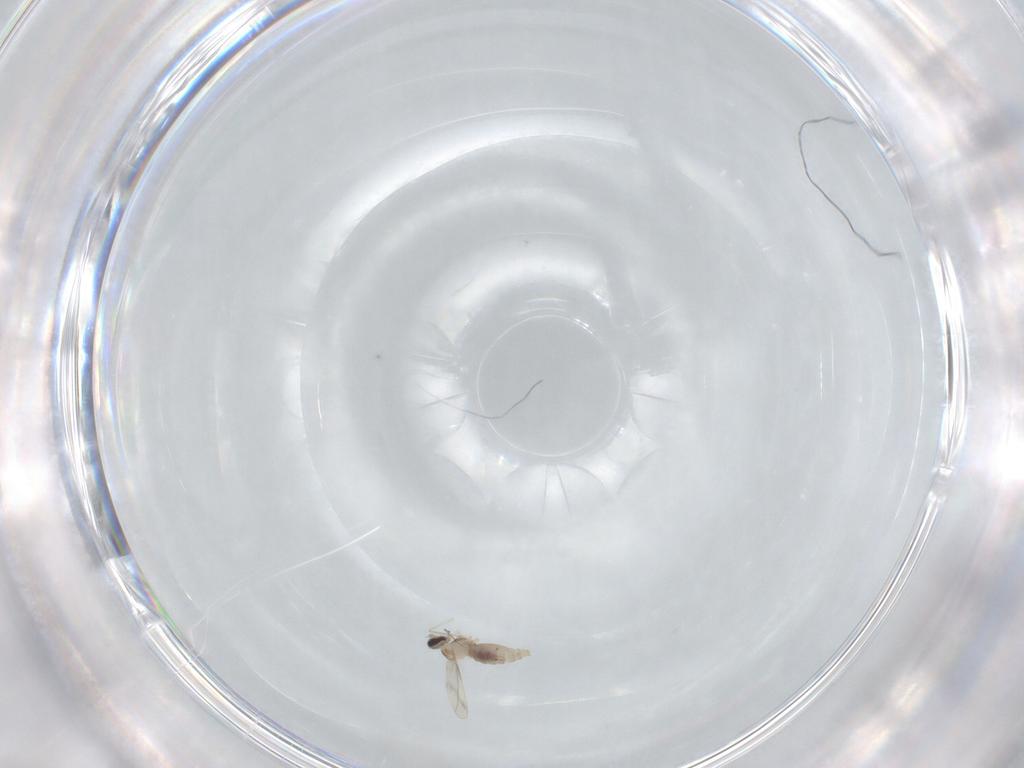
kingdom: Animalia
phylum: Arthropoda
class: Insecta
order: Diptera
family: Cecidomyiidae
